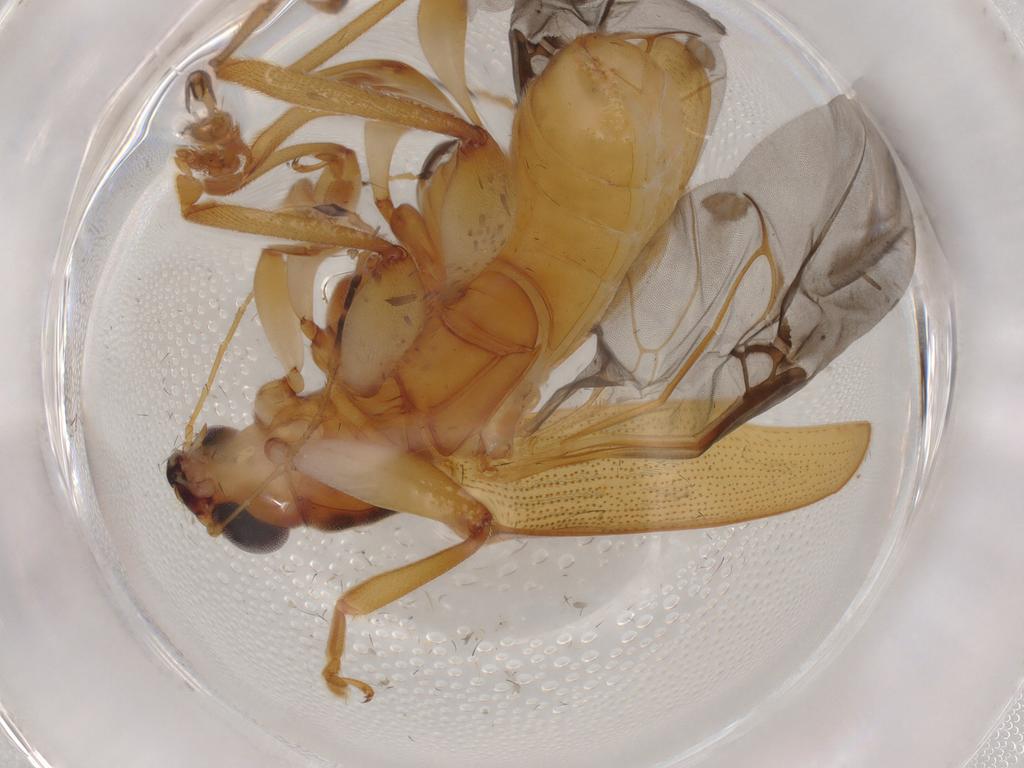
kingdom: Animalia
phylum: Arthropoda
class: Insecta
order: Coleoptera
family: Chrysomelidae
